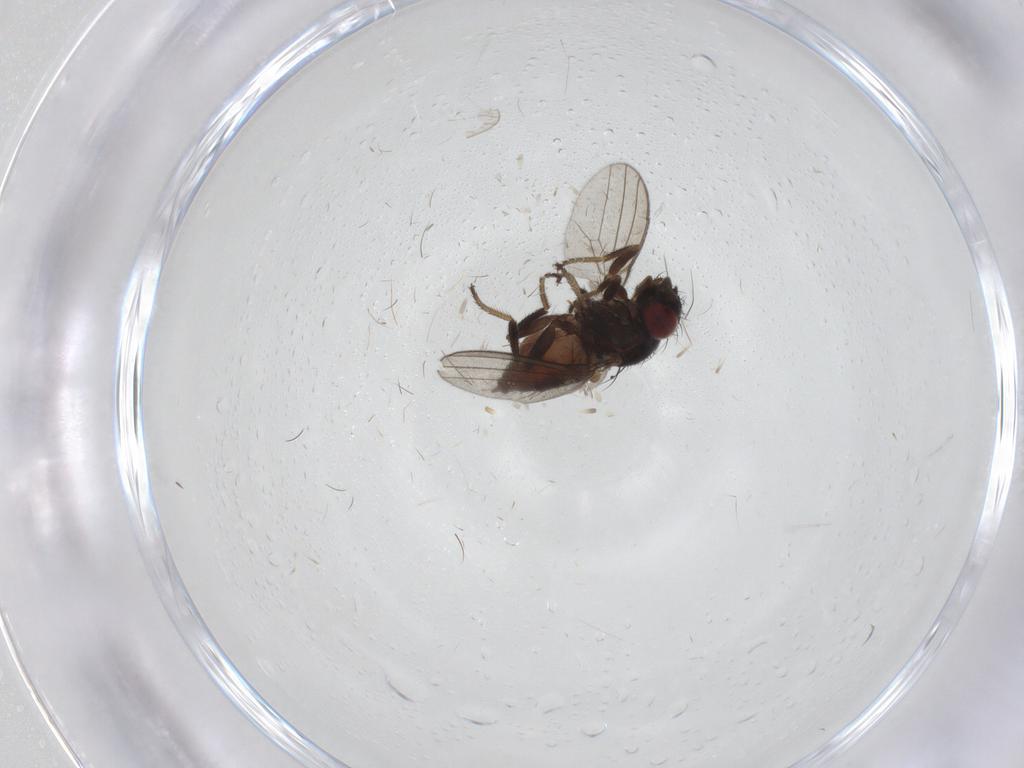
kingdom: Animalia
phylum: Arthropoda
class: Insecta
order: Diptera
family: Milichiidae
